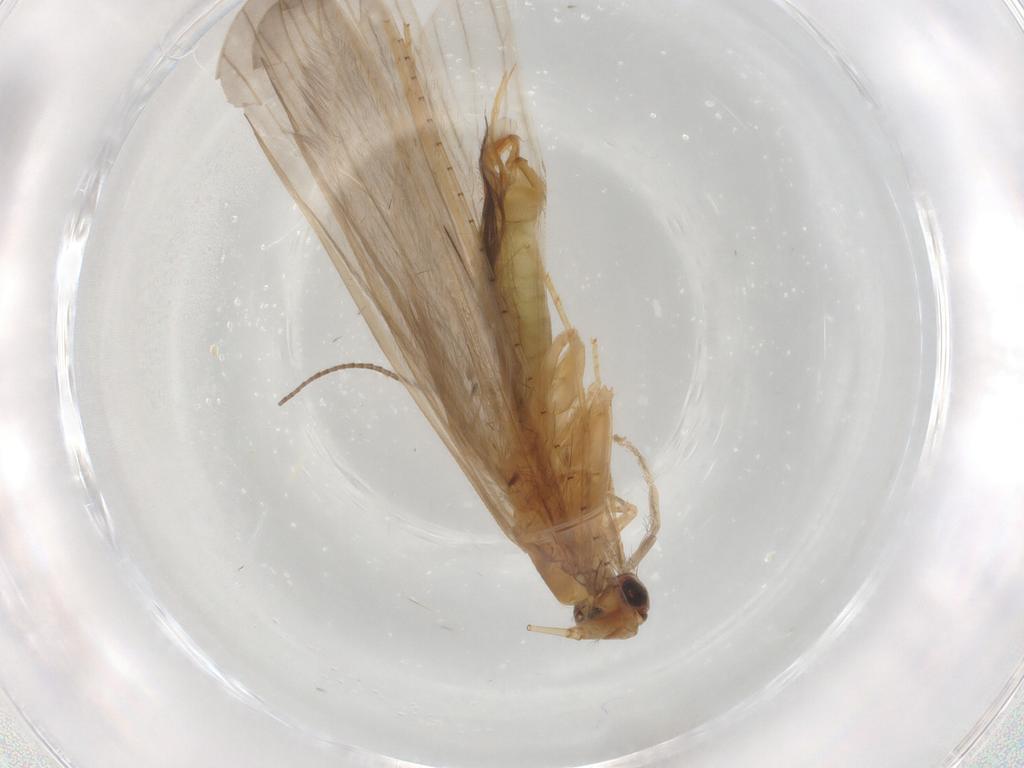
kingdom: Animalia
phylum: Arthropoda
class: Insecta
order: Trichoptera
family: Leptoceridae
